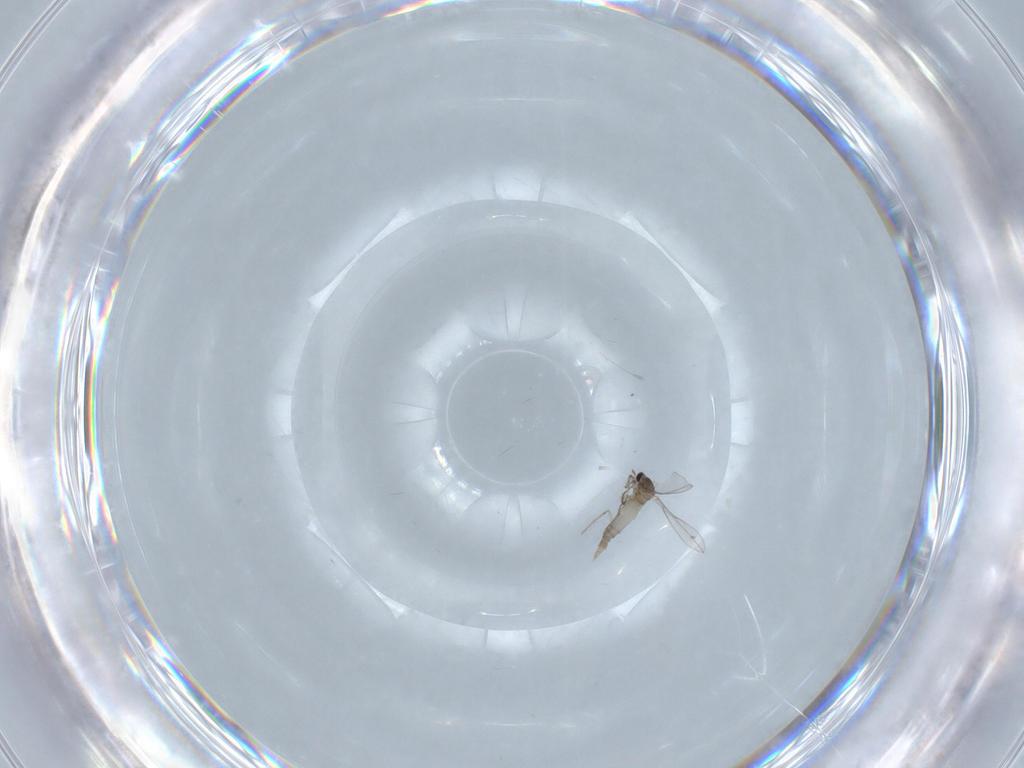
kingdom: Animalia
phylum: Arthropoda
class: Insecta
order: Diptera
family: Cecidomyiidae
